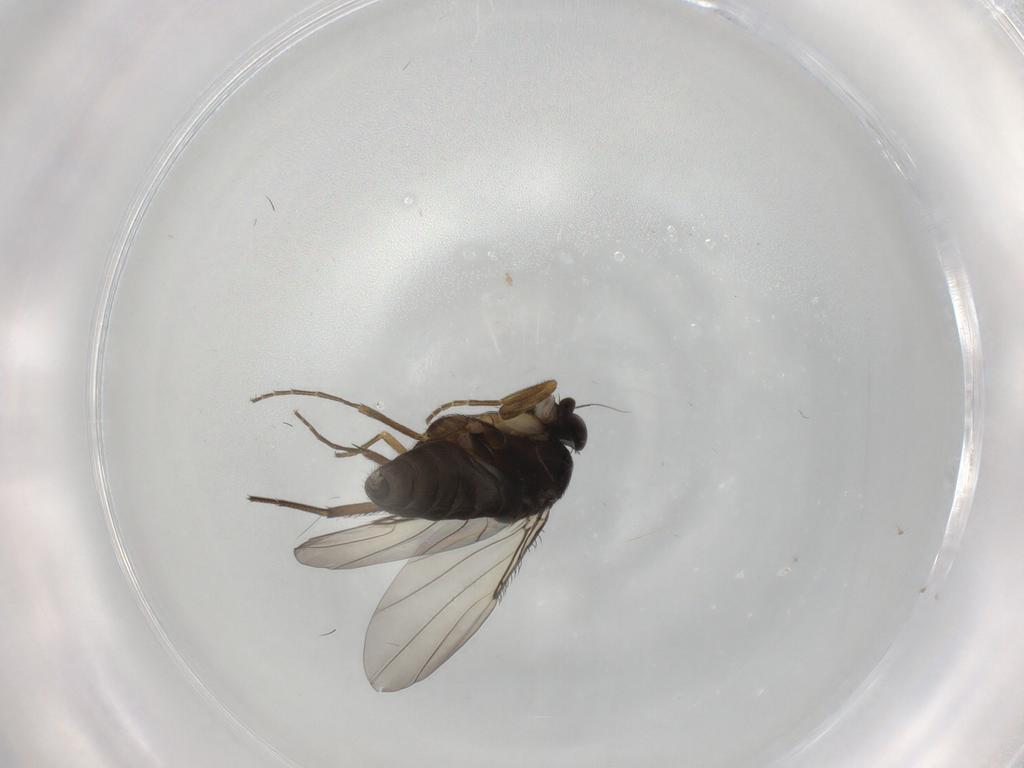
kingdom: Animalia
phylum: Arthropoda
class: Insecta
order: Diptera
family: Phoridae
